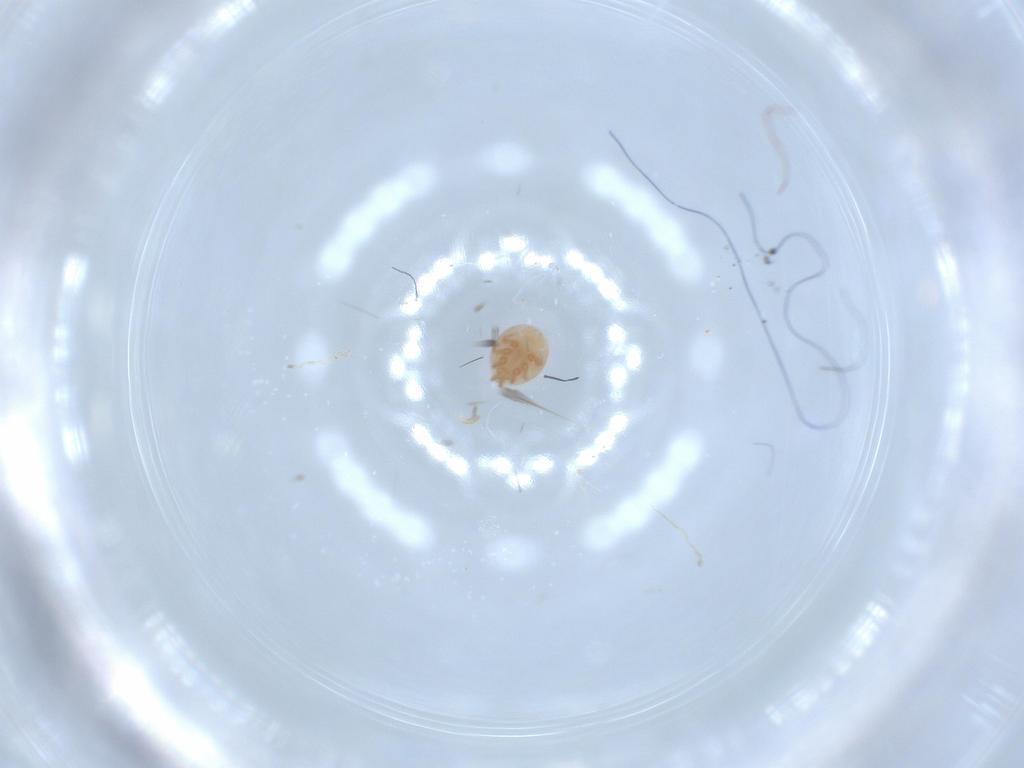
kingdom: Animalia
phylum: Arthropoda
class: Arachnida
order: Mesostigmata
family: Trematuridae
